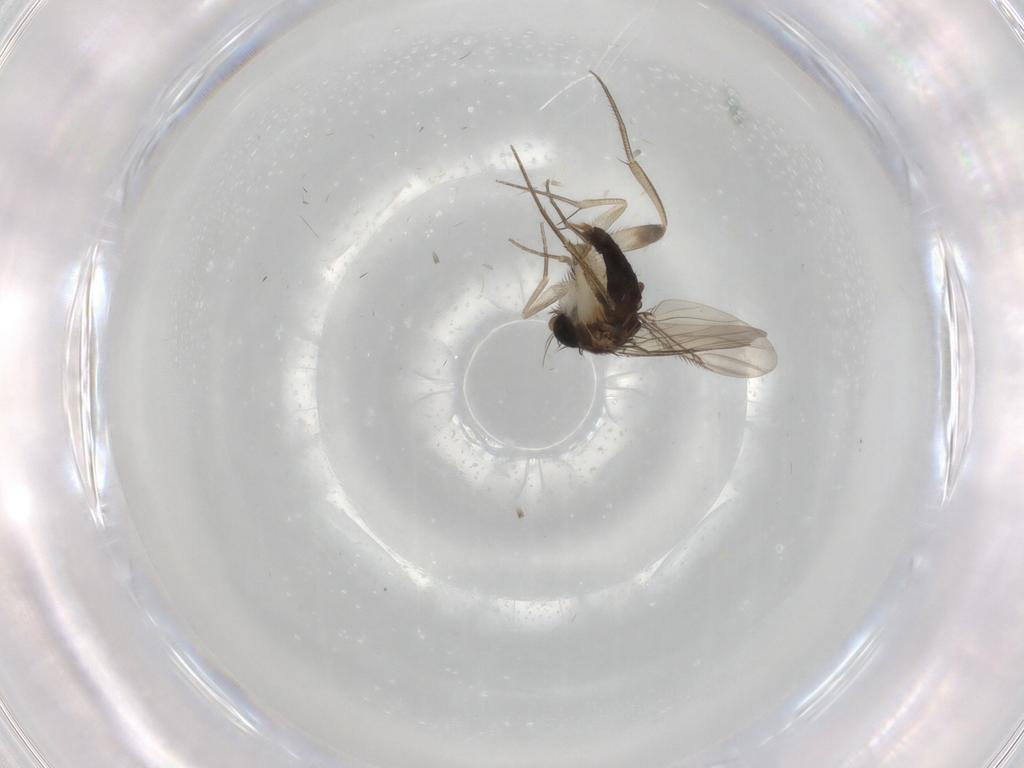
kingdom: Animalia
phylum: Arthropoda
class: Insecta
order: Diptera
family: Phoridae
